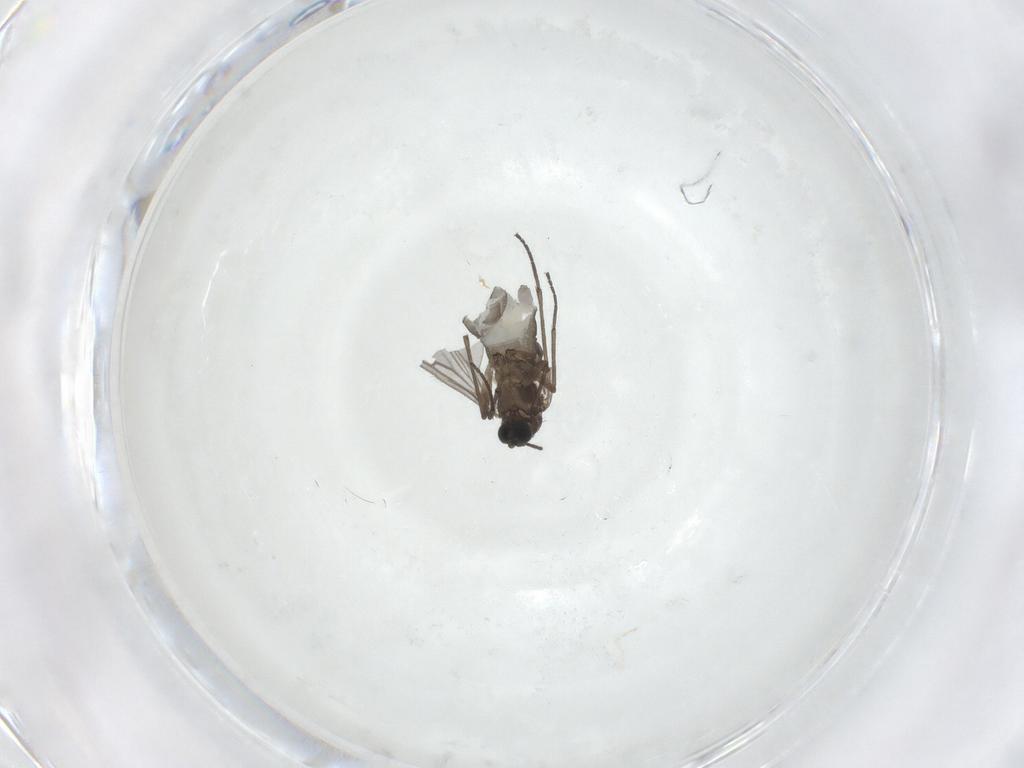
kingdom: Animalia
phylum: Arthropoda
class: Insecta
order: Diptera
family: Sciaridae
